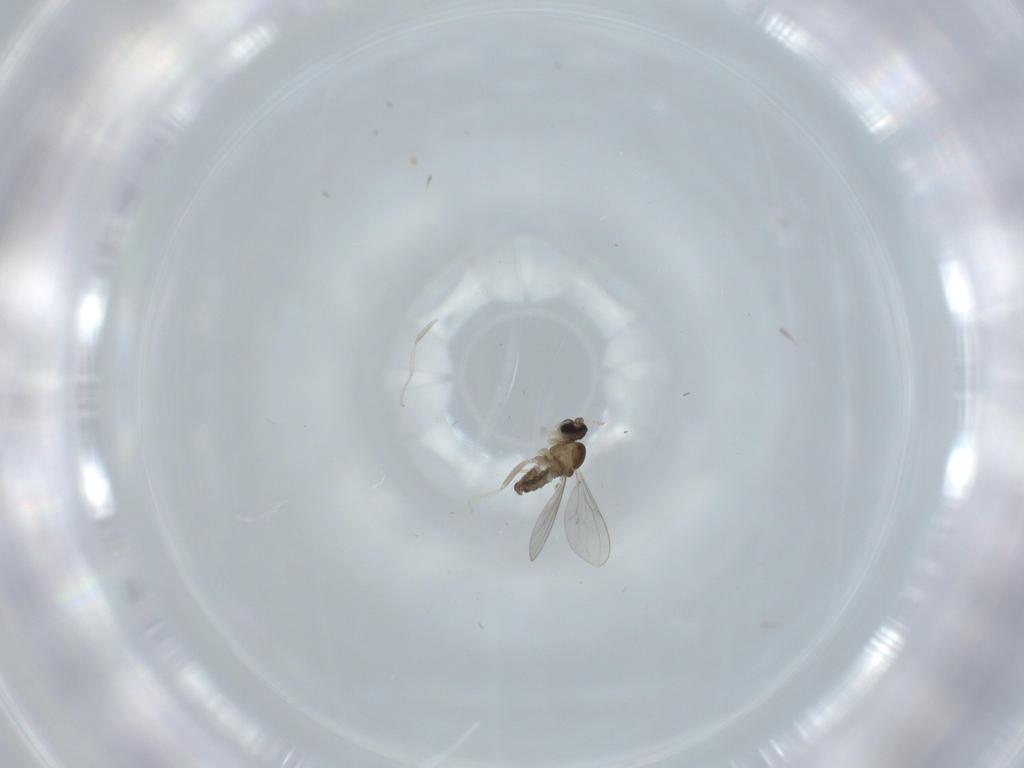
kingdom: Animalia
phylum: Arthropoda
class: Insecta
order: Diptera
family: Cecidomyiidae
